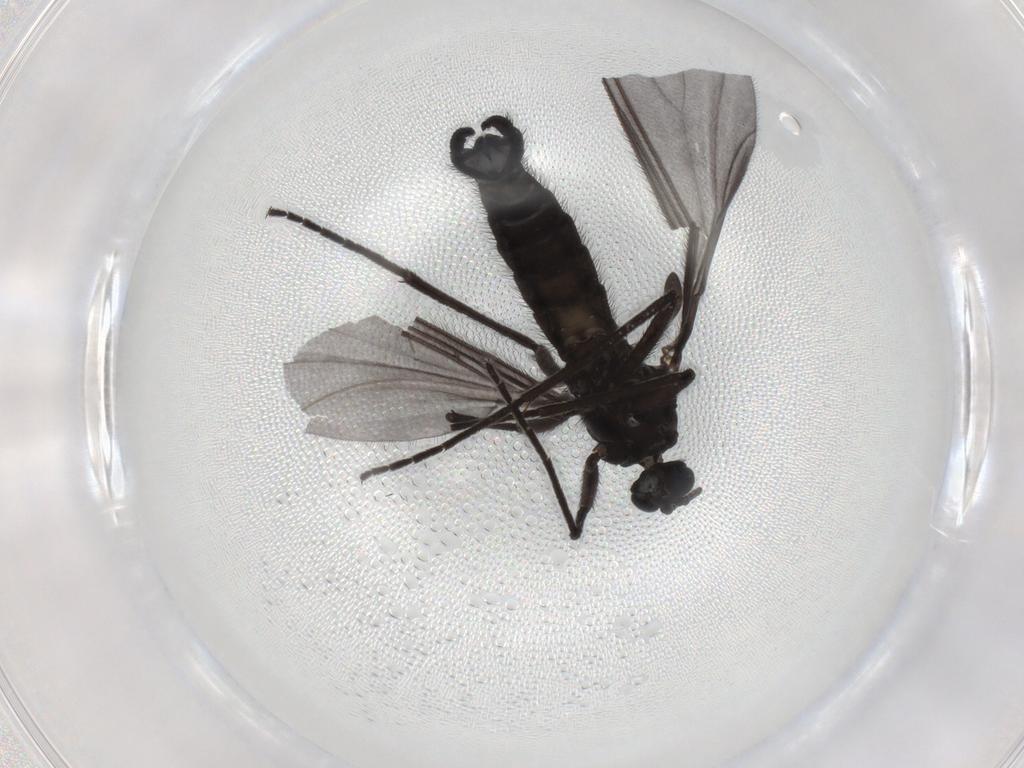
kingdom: Animalia
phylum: Arthropoda
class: Insecta
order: Diptera
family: Sciaridae
